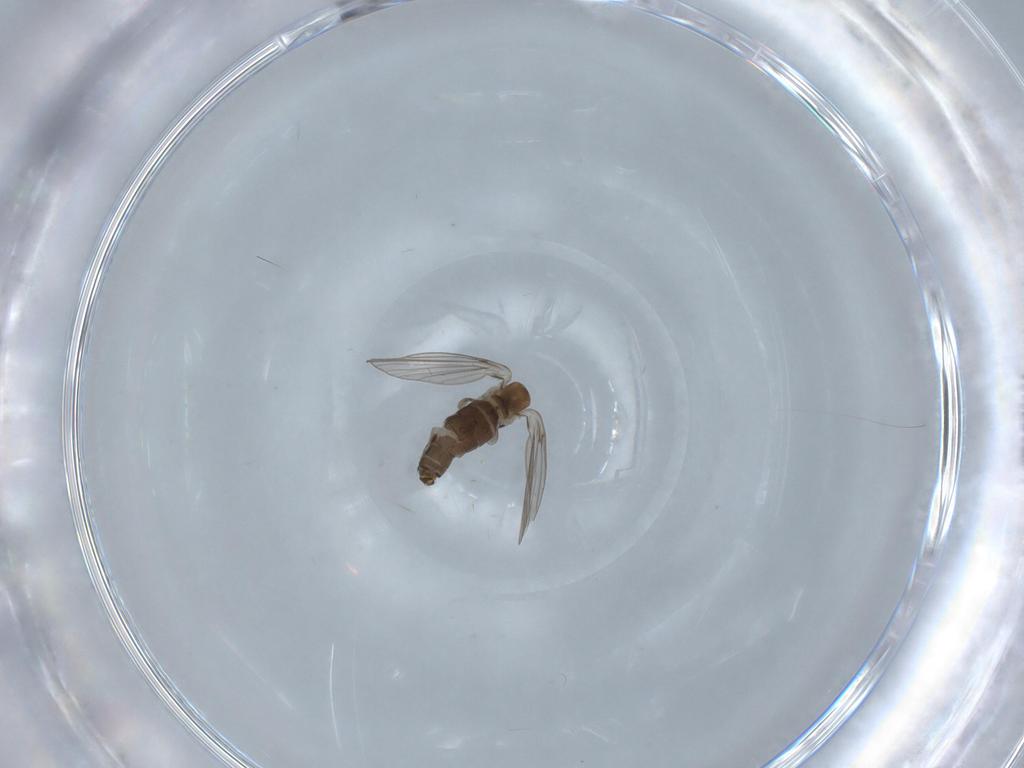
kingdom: Animalia
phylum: Arthropoda
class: Insecta
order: Diptera
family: Psychodidae
